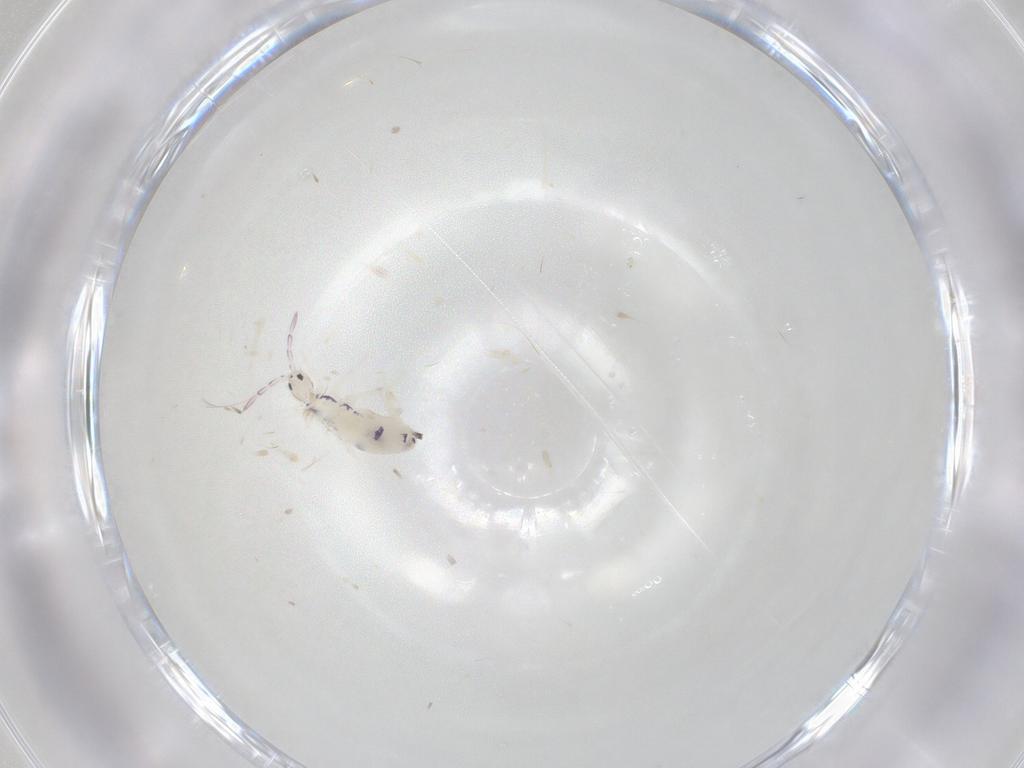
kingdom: Animalia
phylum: Arthropoda
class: Collembola
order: Entomobryomorpha
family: Entomobryidae
